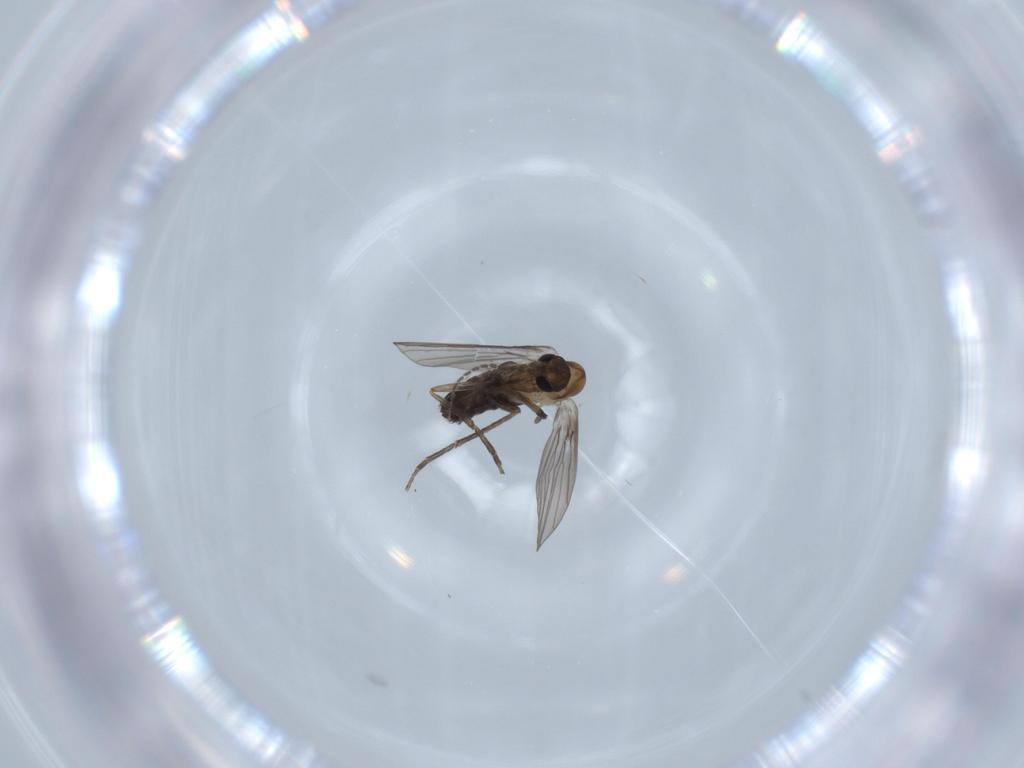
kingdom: Animalia
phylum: Arthropoda
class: Insecta
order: Diptera
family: Psychodidae
